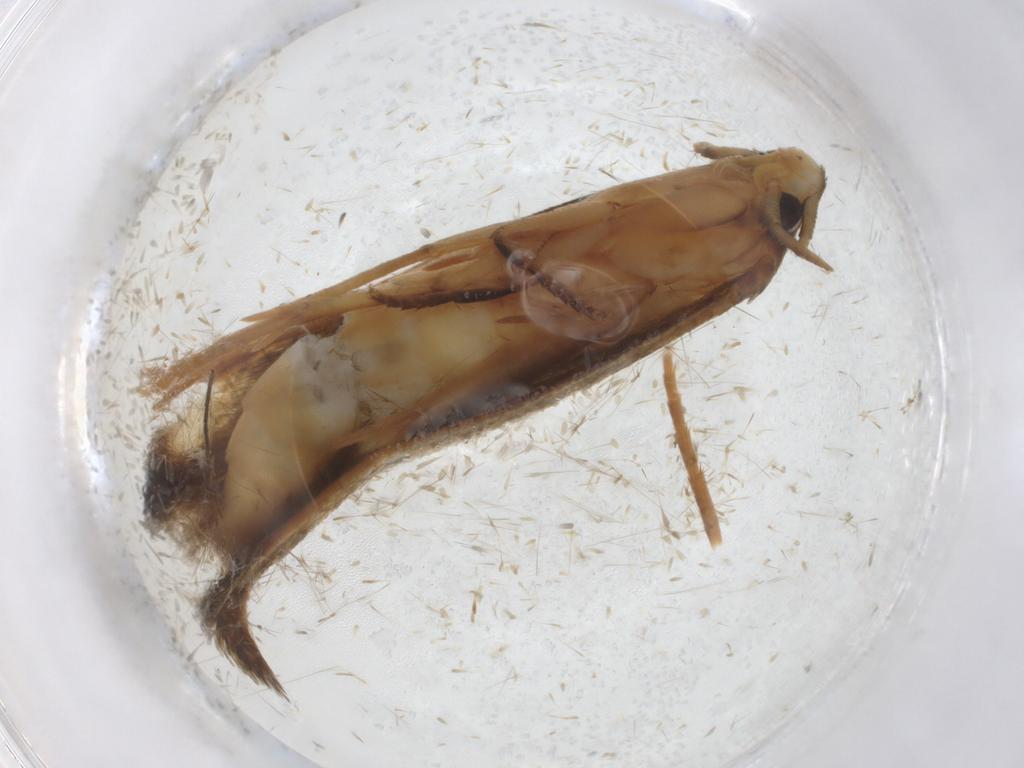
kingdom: Animalia
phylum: Arthropoda
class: Insecta
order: Lepidoptera
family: Tineidae
